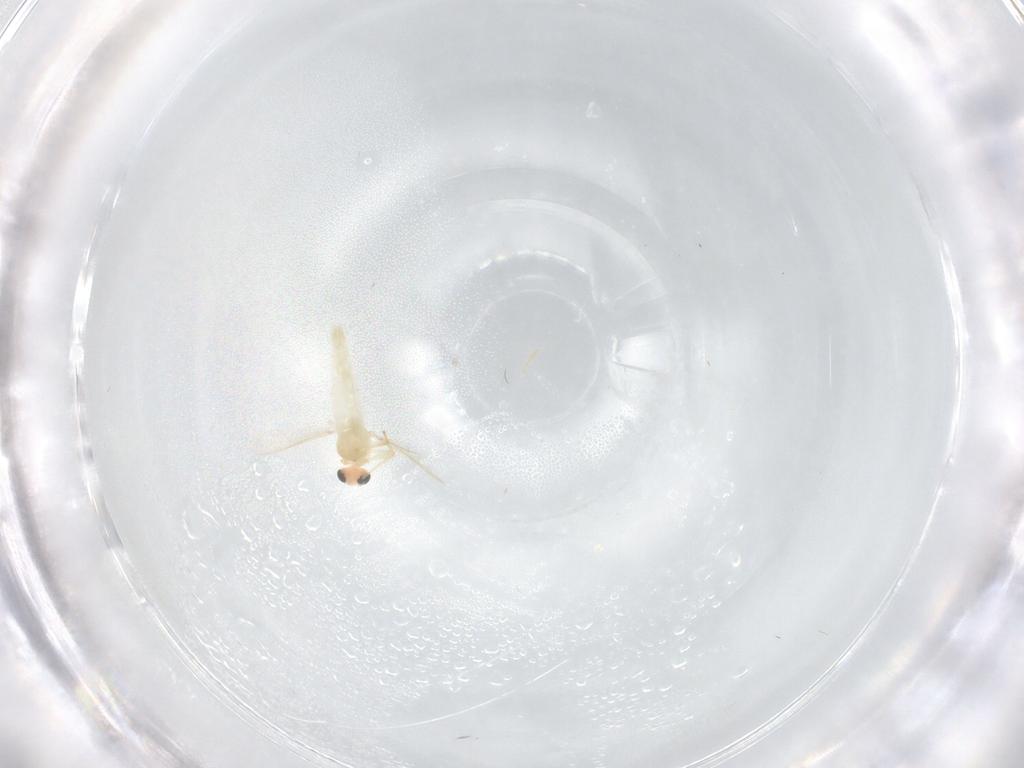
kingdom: Animalia
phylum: Arthropoda
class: Insecta
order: Diptera
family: Chironomidae
